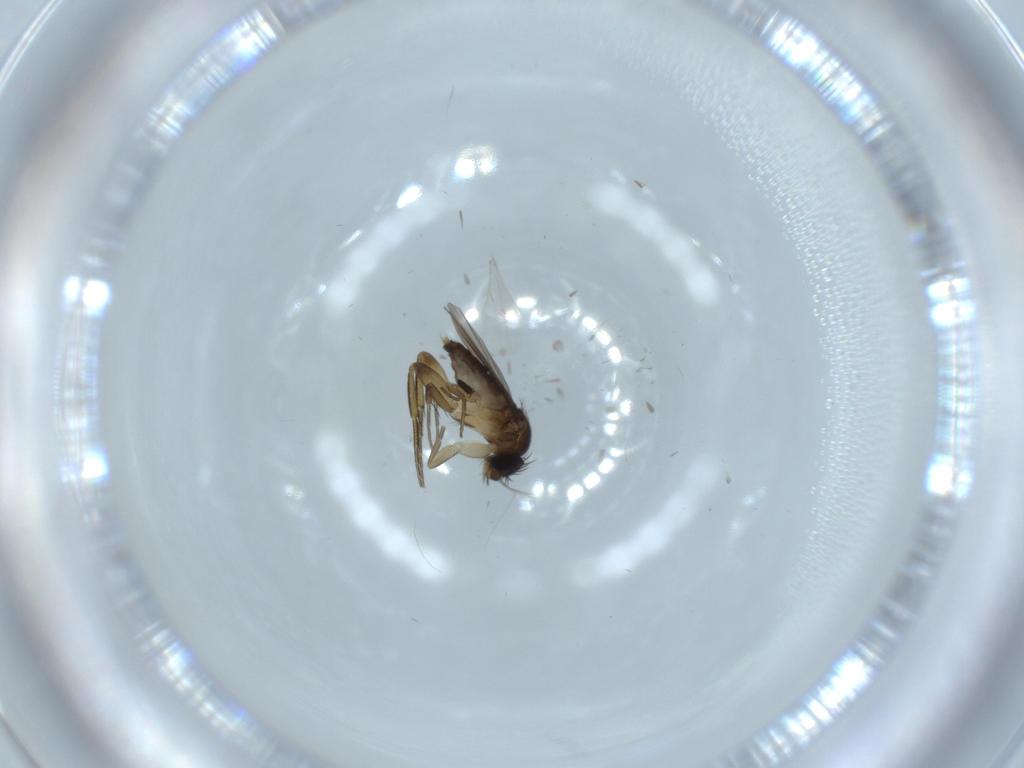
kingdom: Animalia
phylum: Arthropoda
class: Insecta
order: Diptera
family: Phoridae
